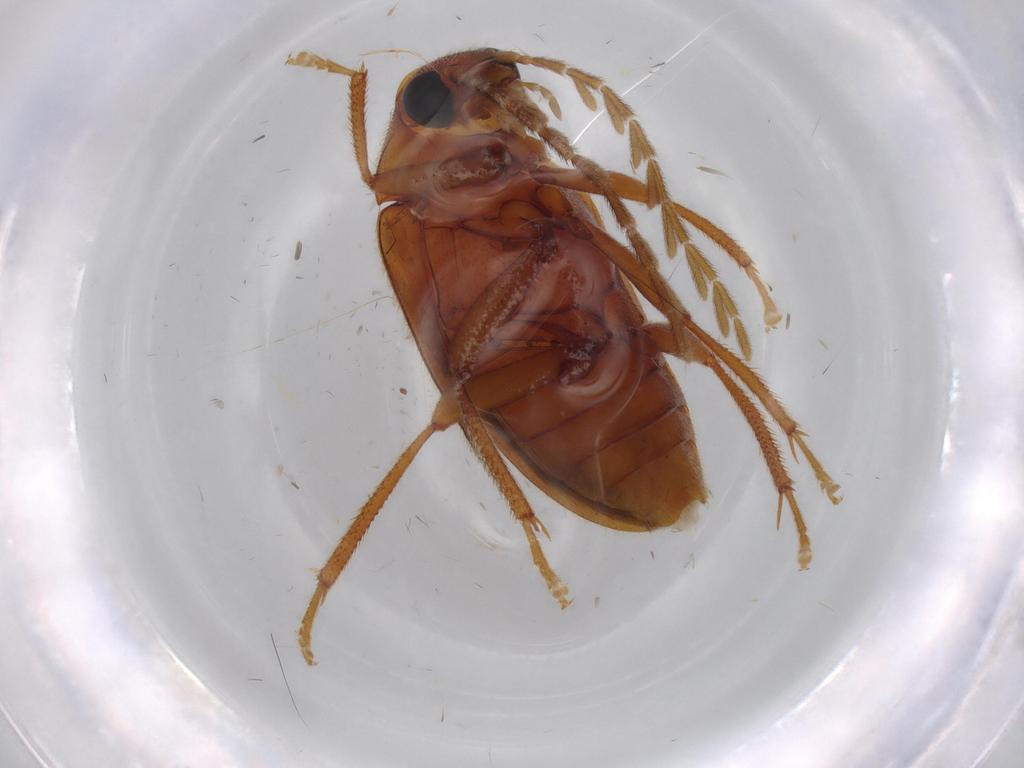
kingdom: Animalia
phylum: Arthropoda
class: Insecta
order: Coleoptera
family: Ptilodactylidae
